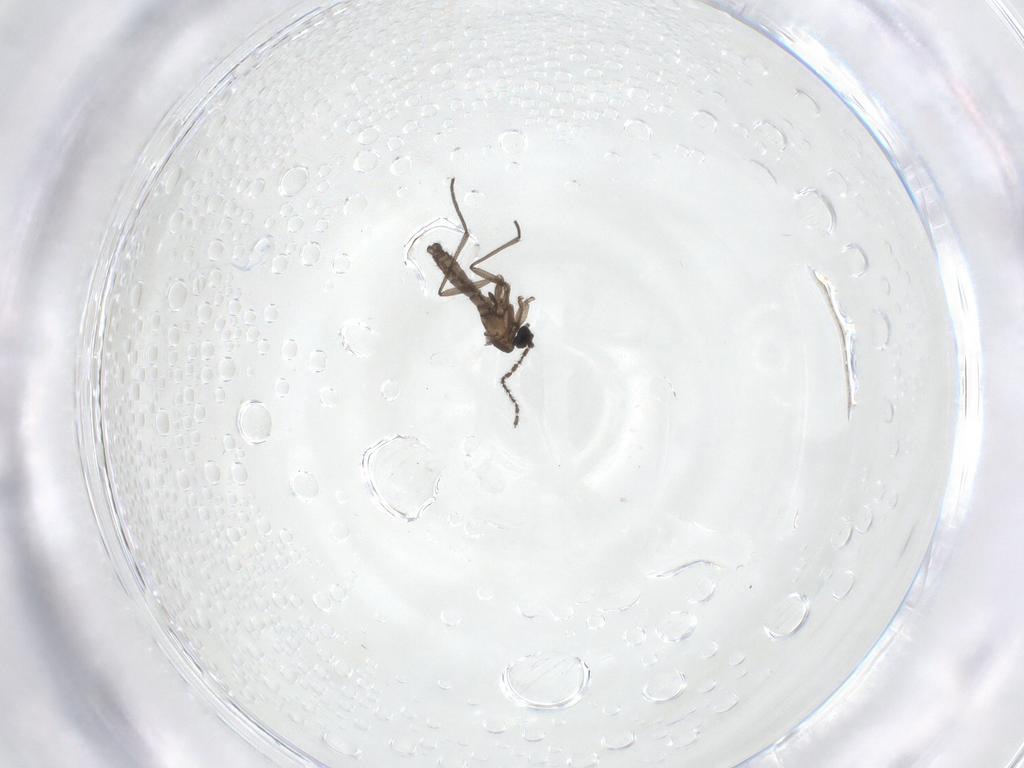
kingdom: Animalia
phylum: Arthropoda
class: Insecta
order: Diptera
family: Sciaridae
